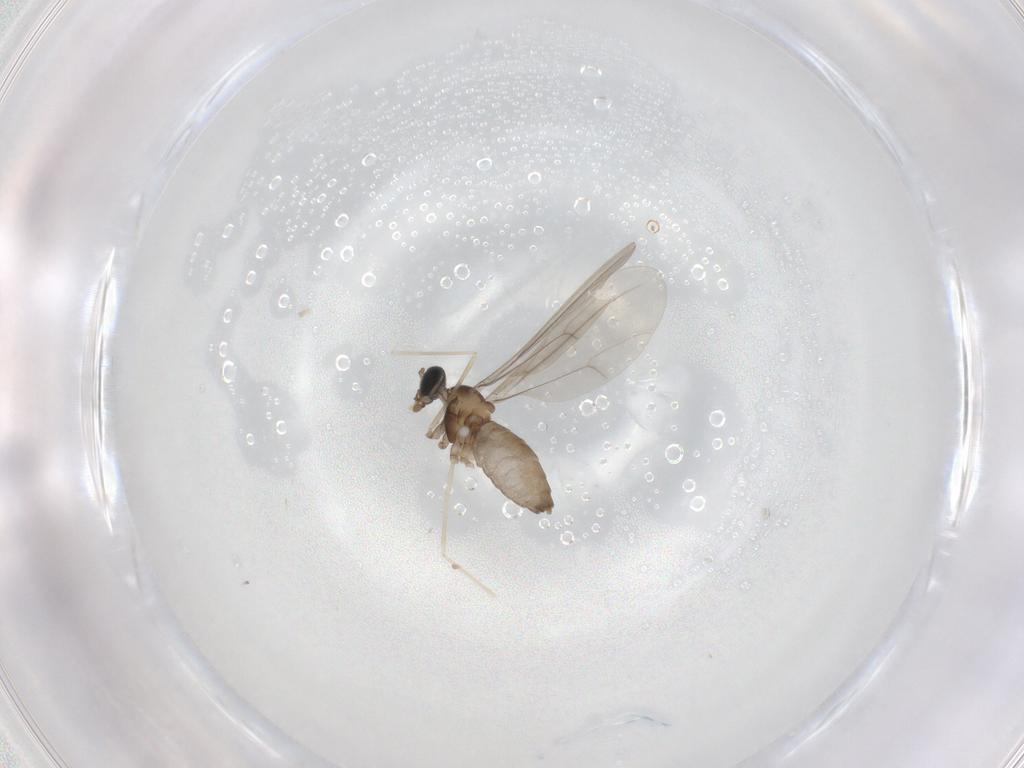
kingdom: Animalia
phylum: Arthropoda
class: Insecta
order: Diptera
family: Cecidomyiidae
